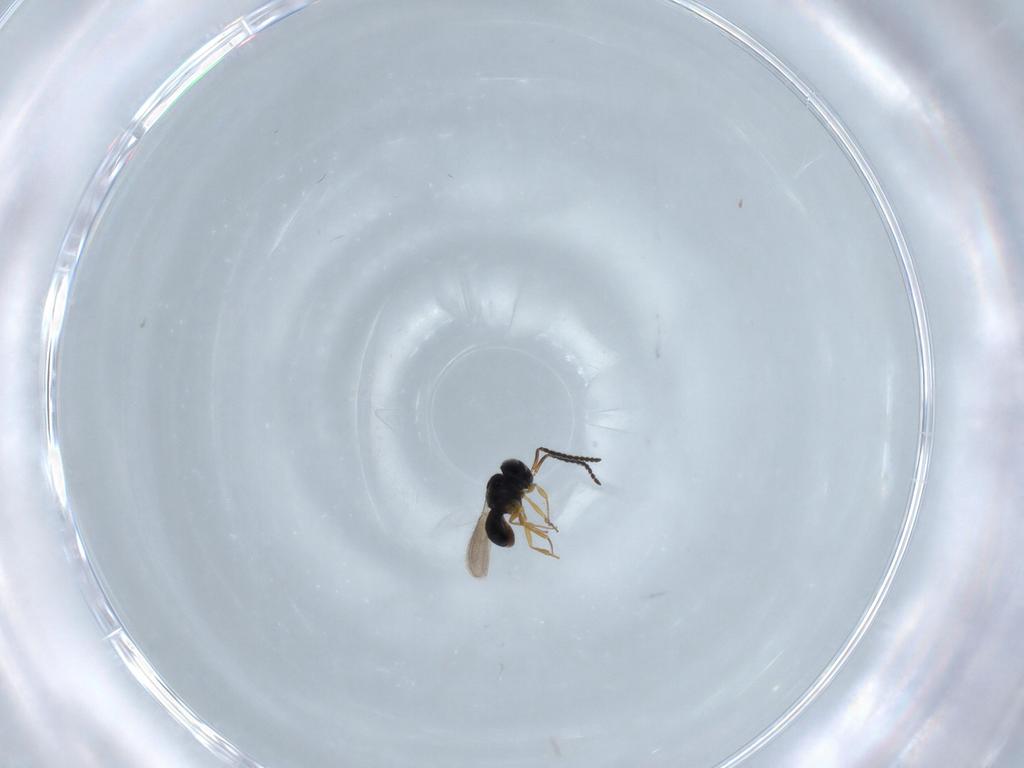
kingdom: Animalia
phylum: Arthropoda
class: Insecta
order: Hymenoptera
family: Scelionidae
